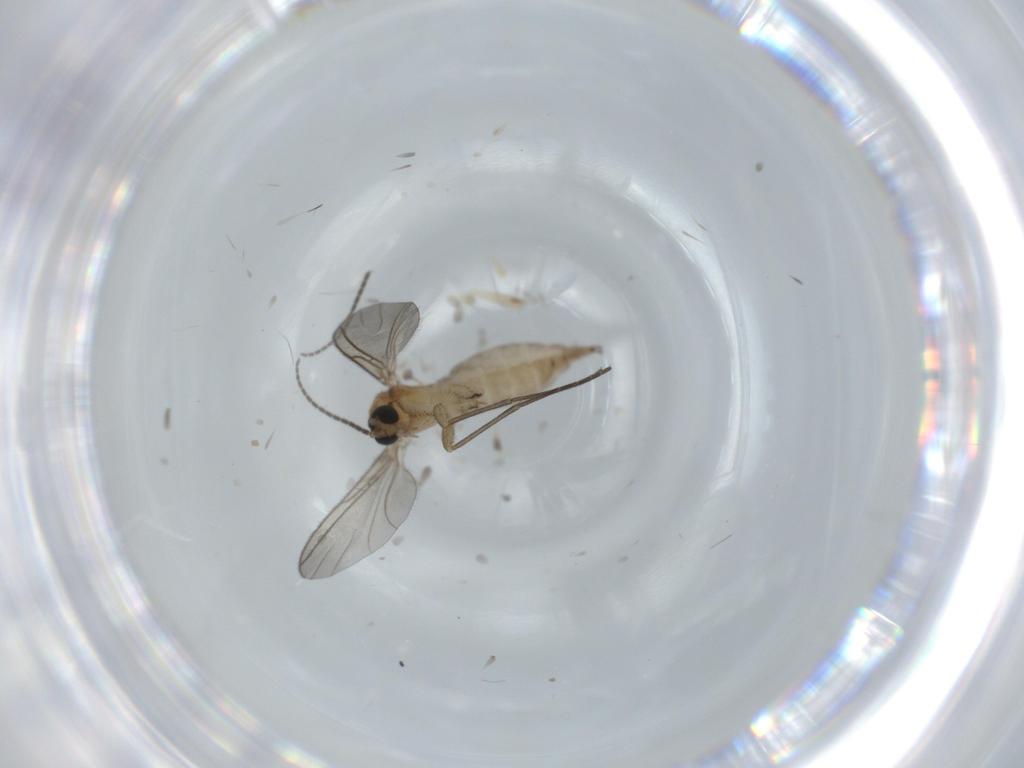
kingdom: Animalia
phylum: Arthropoda
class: Insecta
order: Diptera
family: Sciaridae
